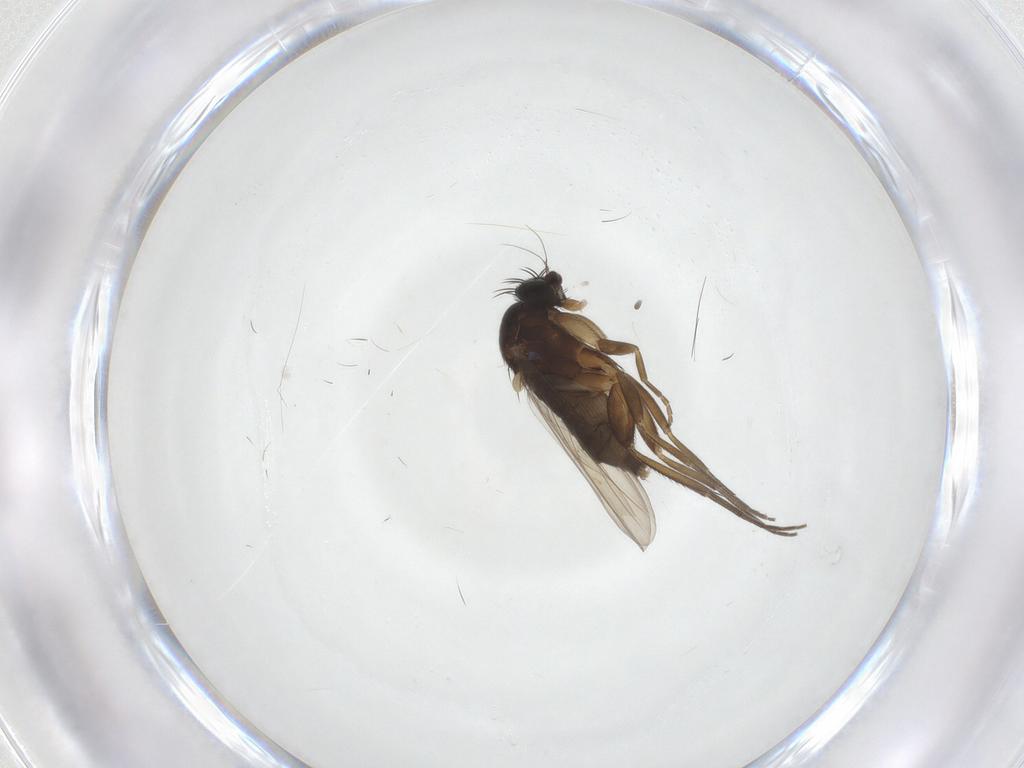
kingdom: Animalia
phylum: Arthropoda
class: Insecta
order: Diptera
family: Phoridae
